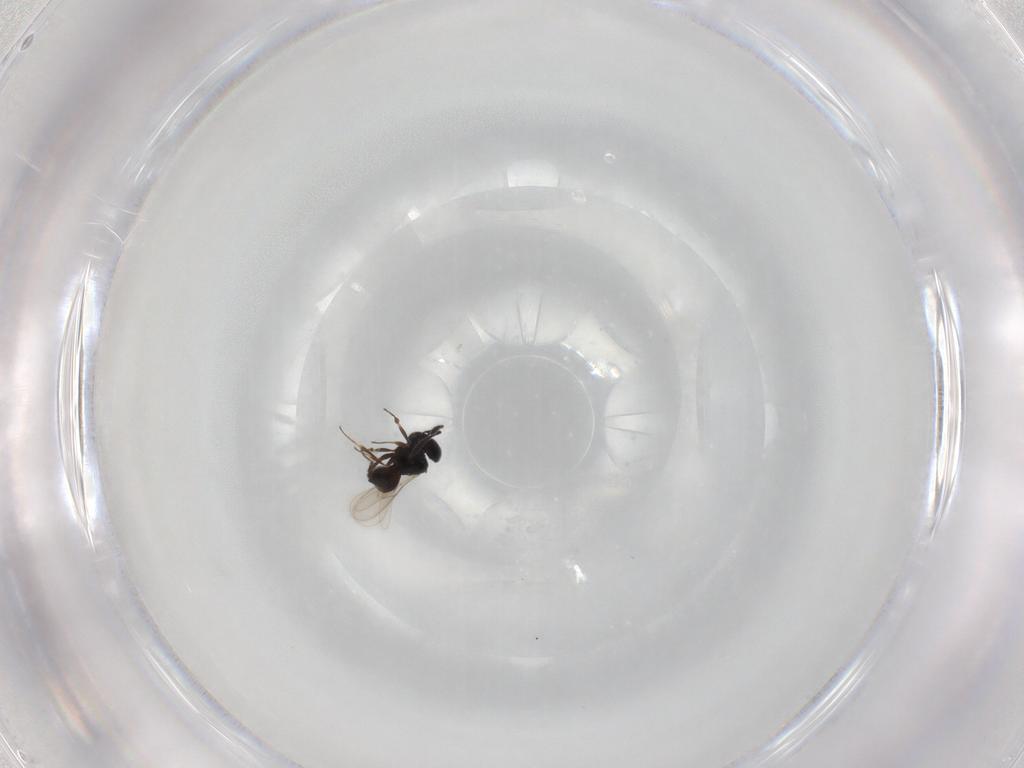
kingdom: Animalia
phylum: Arthropoda
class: Insecta
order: Hymenoptera
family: Scelionidae
